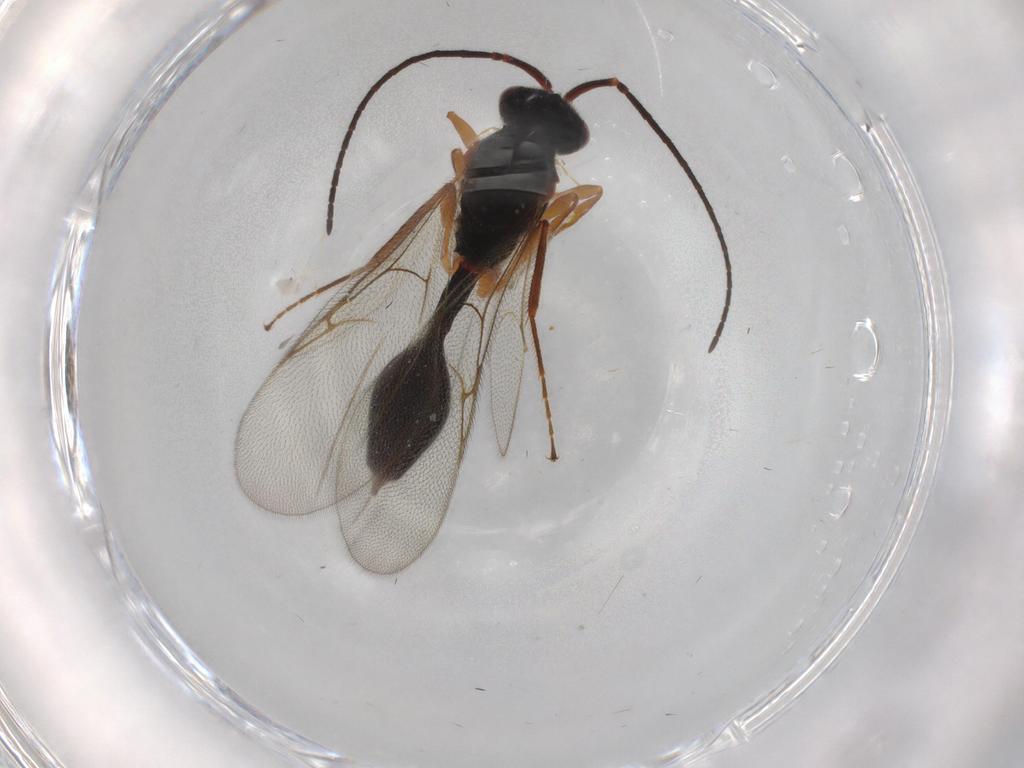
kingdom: Animalia
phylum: Arthropoda
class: Insecta
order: Hymenoptera
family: Diapriidae
